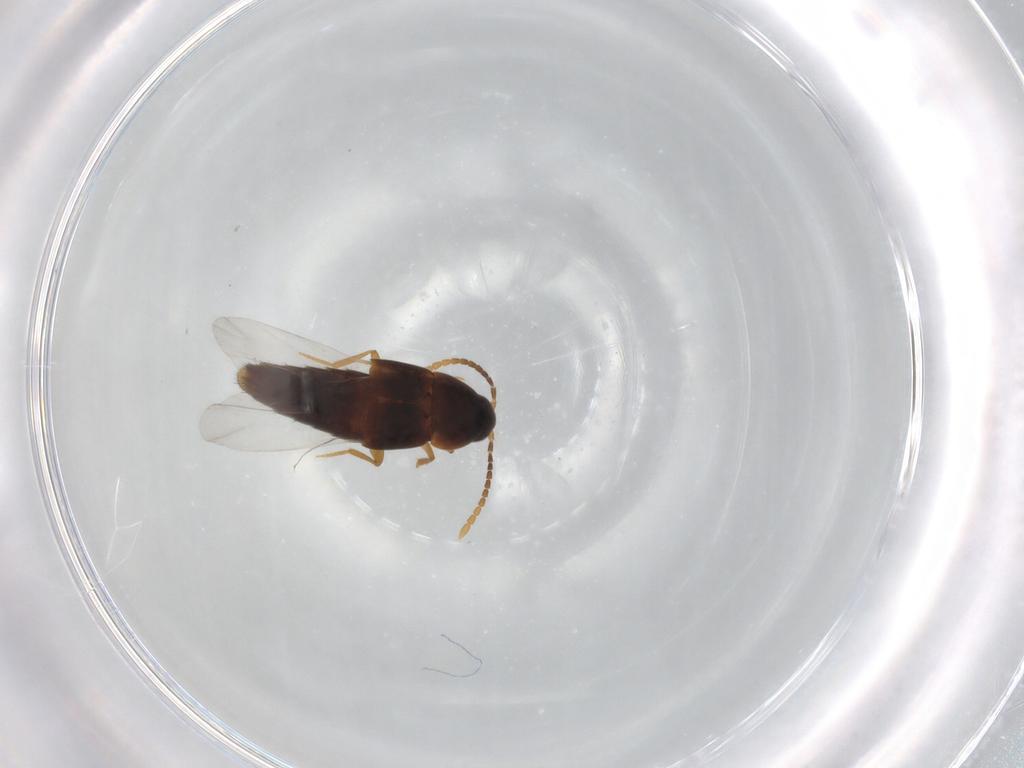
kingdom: Animalia
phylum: Arthropoda
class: Insecta
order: Coleoptera
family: Staphylinidae
